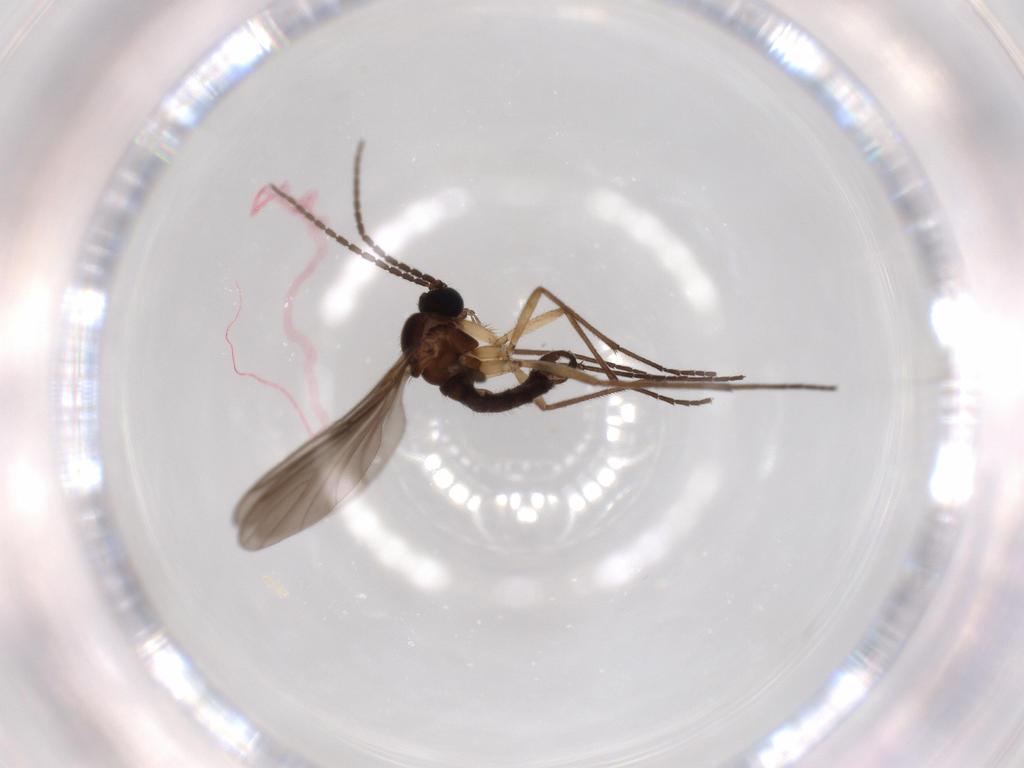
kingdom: Animalia
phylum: Arthropoda
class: Insecta
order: Diptera
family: Sciaridae
